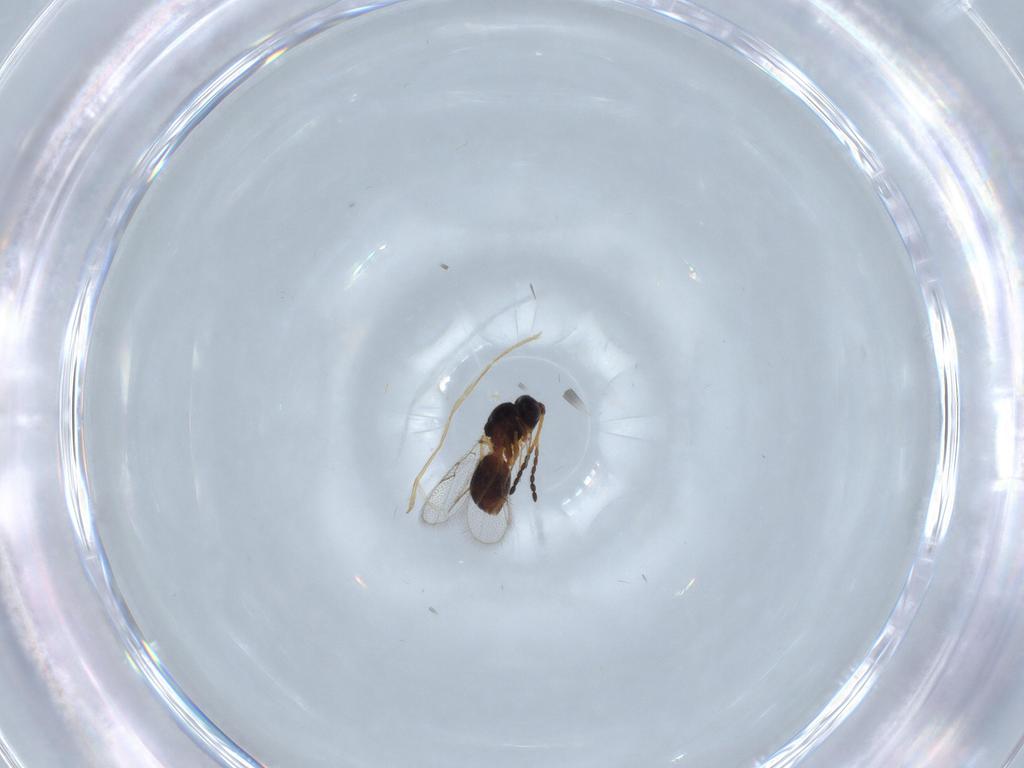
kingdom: Animalia
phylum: Arthropoda
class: Insecta
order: Hymenoptera
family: Figitidae
